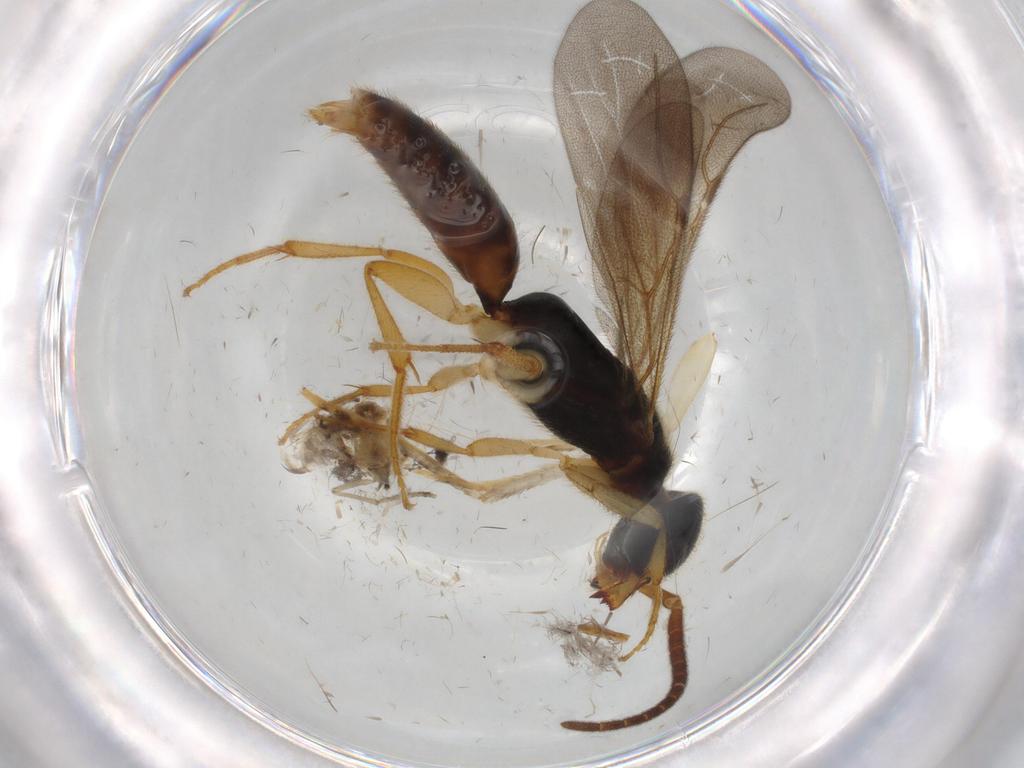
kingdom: Animalia
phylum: Arthropoda
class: Insecta
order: Hymenoptera
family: Bethylidae
